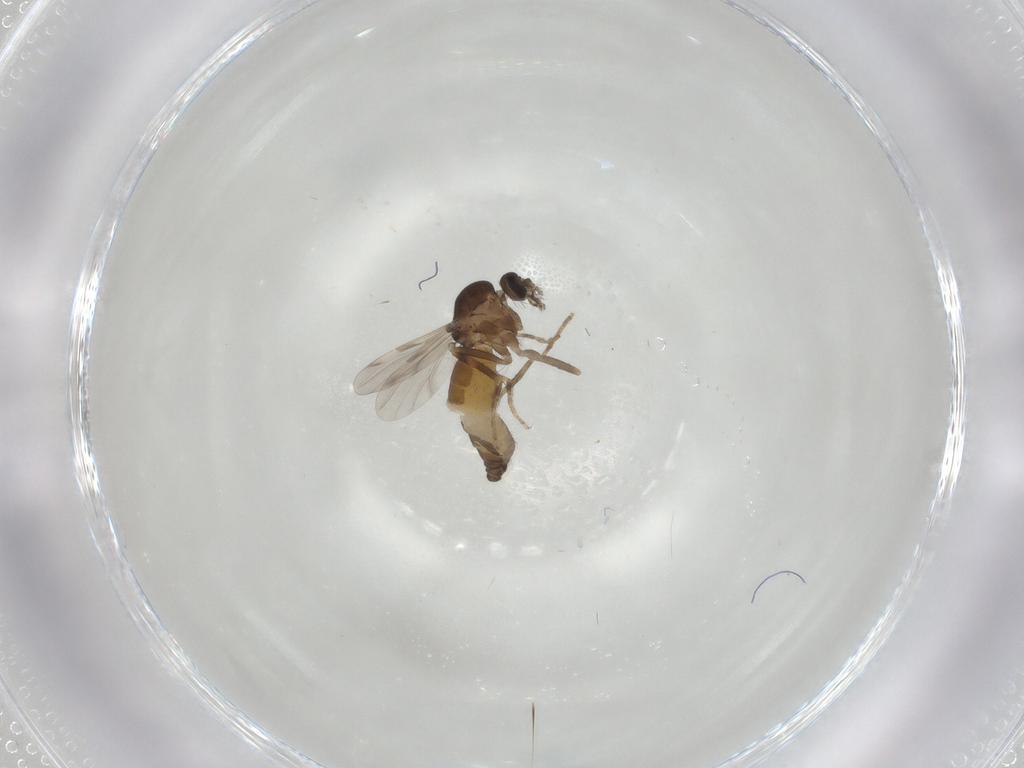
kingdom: Animalia
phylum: Arthropoda
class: Insecta
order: Diptera
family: Ceratopogonidae
